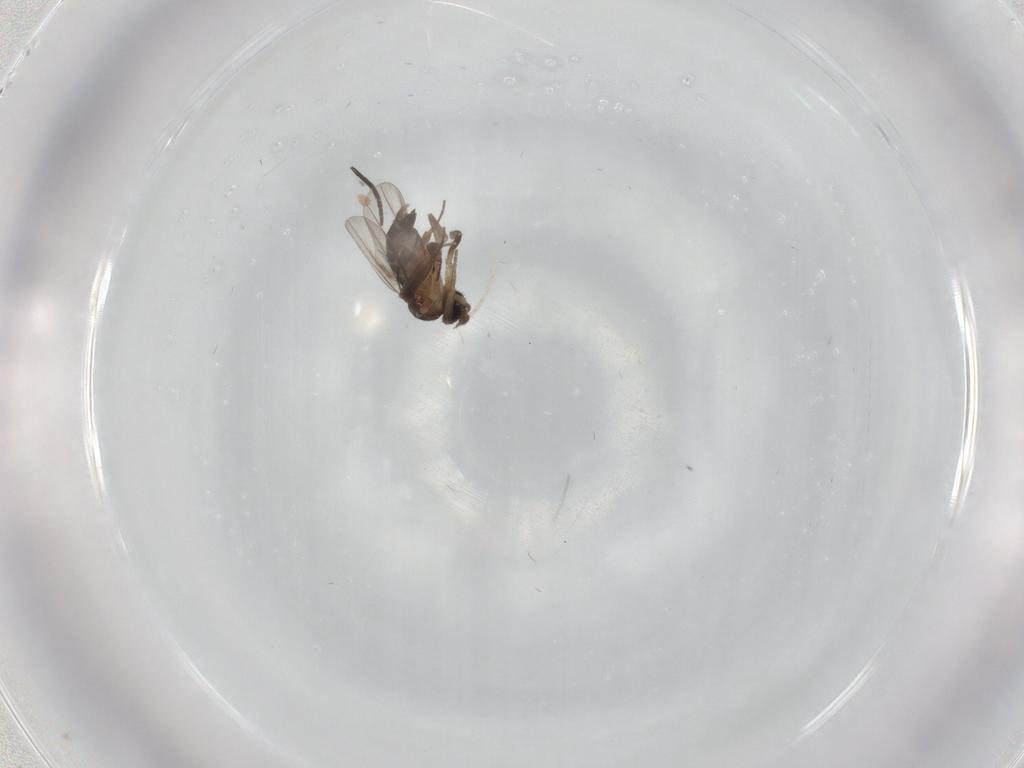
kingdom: Animalia
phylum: Arthropoda
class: Insecta
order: Diptera
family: Phoridae
